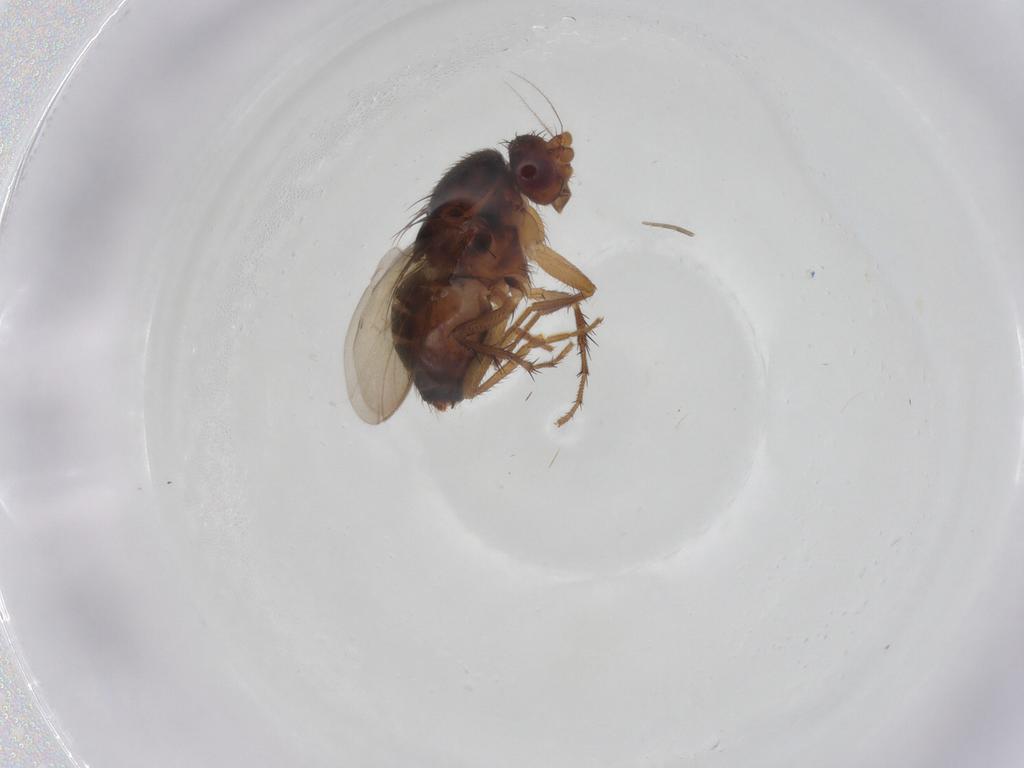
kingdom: Animalia
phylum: Arthropoda
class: Insecta
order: Diptera
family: Sphaeroceridae
